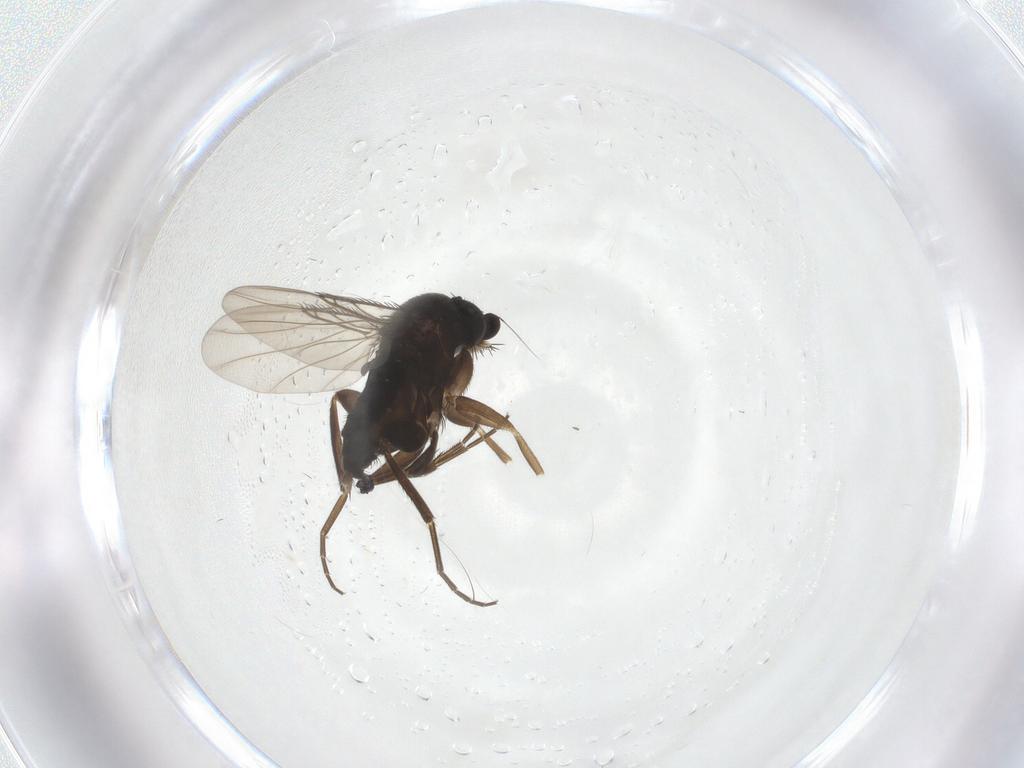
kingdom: Animalia
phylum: Arthropoda
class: Insecta
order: Diptera
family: Phoridae
